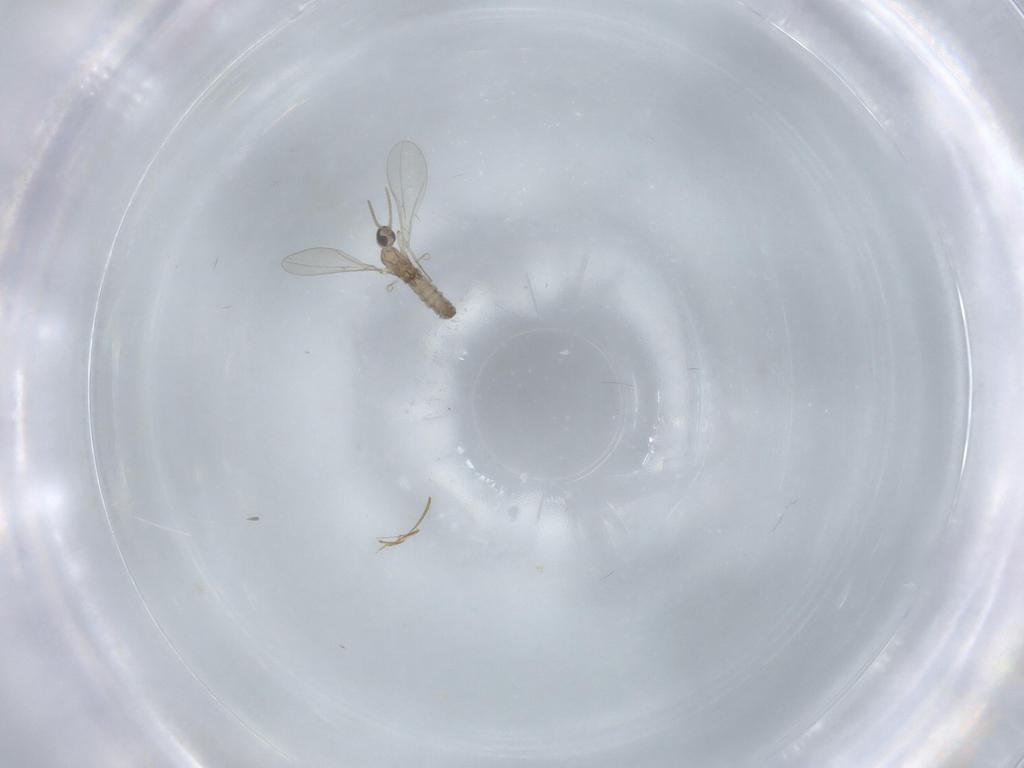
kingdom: Animalia
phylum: Arthropoda
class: Insecta
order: Diptera
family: Cecidomyiidae
